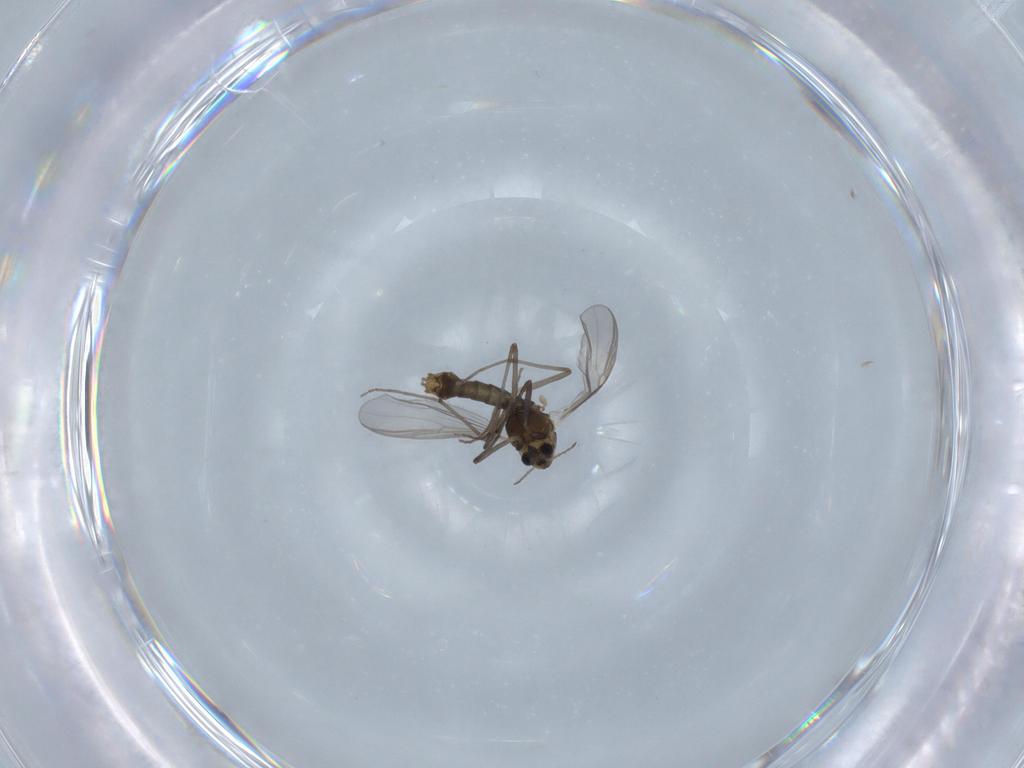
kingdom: Animalia
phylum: Arthropoda
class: Insecta
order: Diptera
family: Chironomidae
